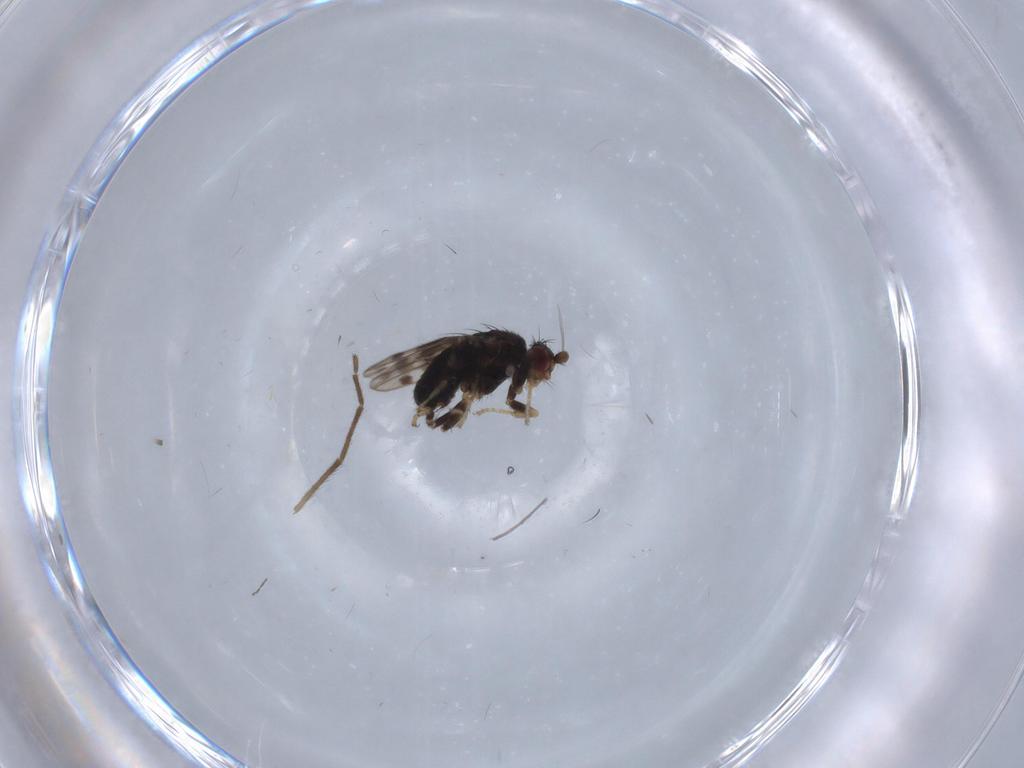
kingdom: Animalia
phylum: Arthropoda
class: Insecta
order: Diptera
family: Sphaeroceridae
